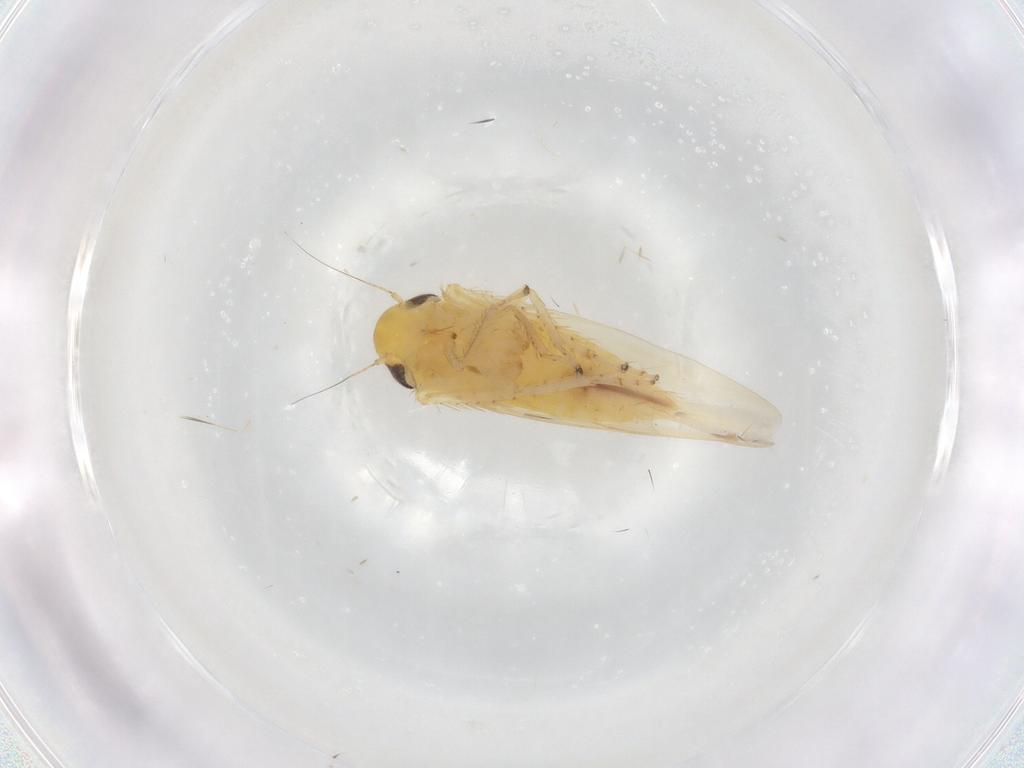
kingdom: Animalia
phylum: Arthropoda
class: Insecta
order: Hemiptera
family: Cicadellidae
